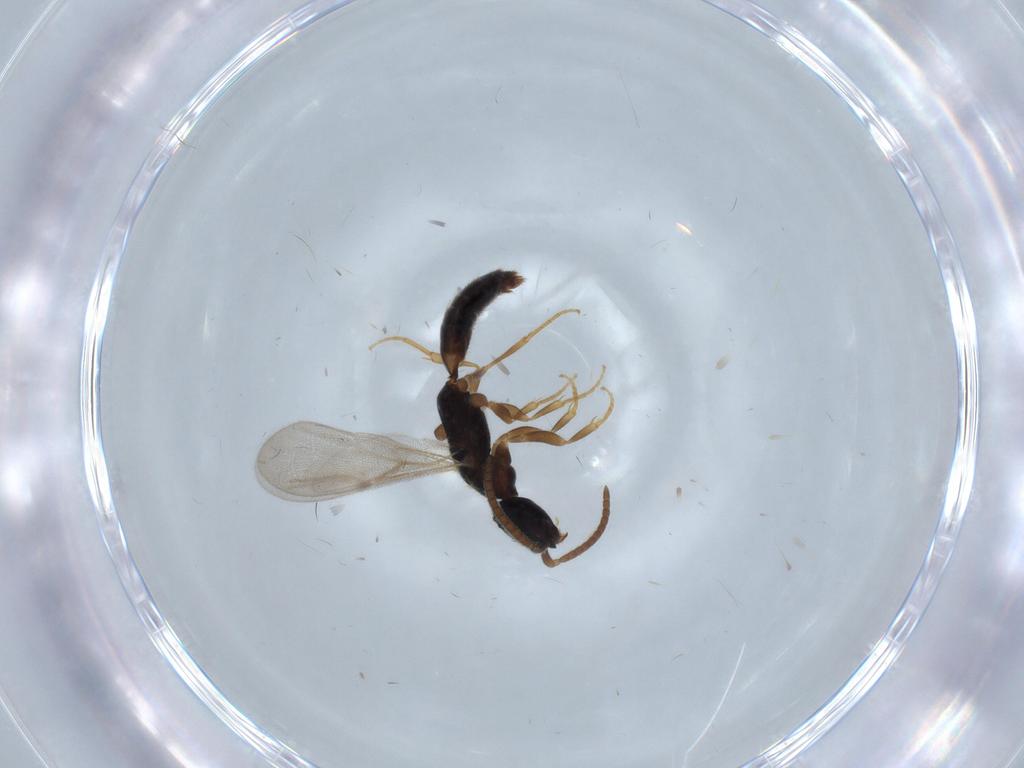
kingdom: Animalia
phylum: Arthropoda
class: Insecta
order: Hymenoptera
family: Bethylidae
